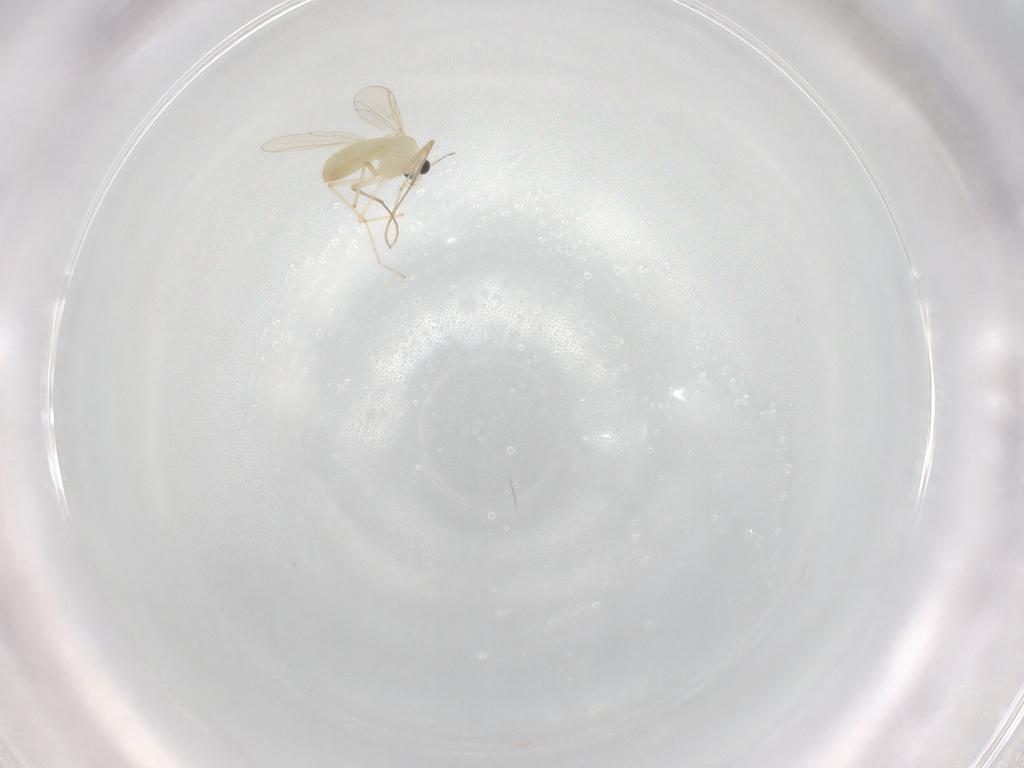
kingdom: Animalia
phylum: Arthropoda
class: Insecta
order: Diptera
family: Chironomidae
